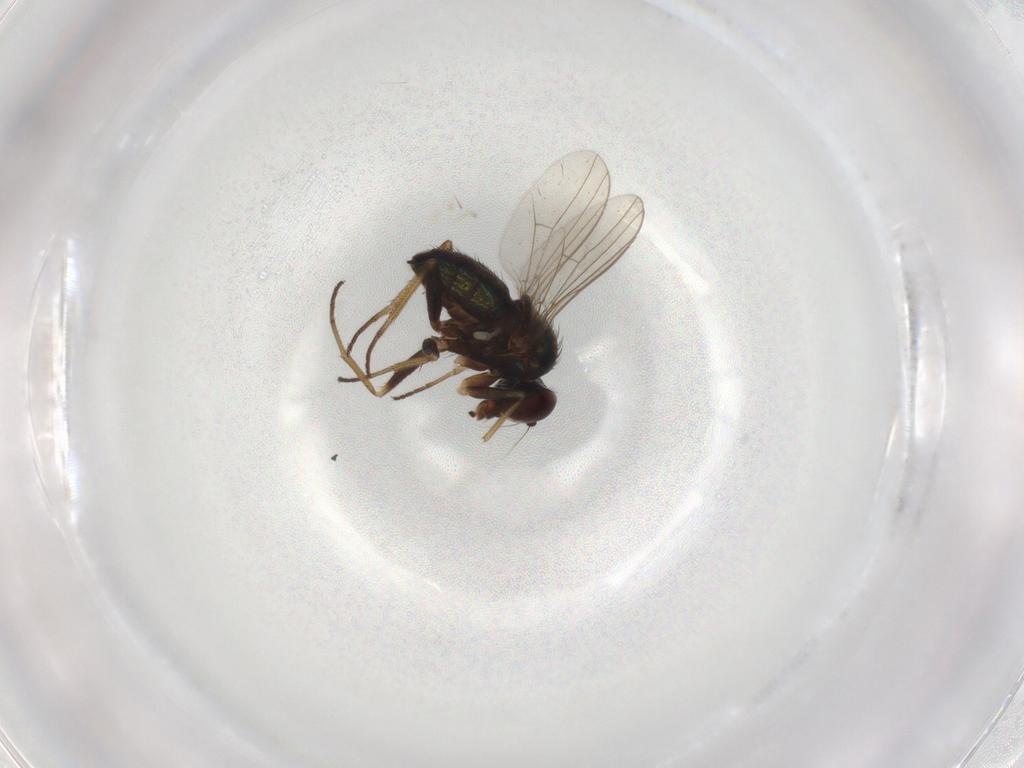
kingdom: Animalia
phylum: Arthropoda
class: Insecta
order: Diptera
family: Dolichopodidae
